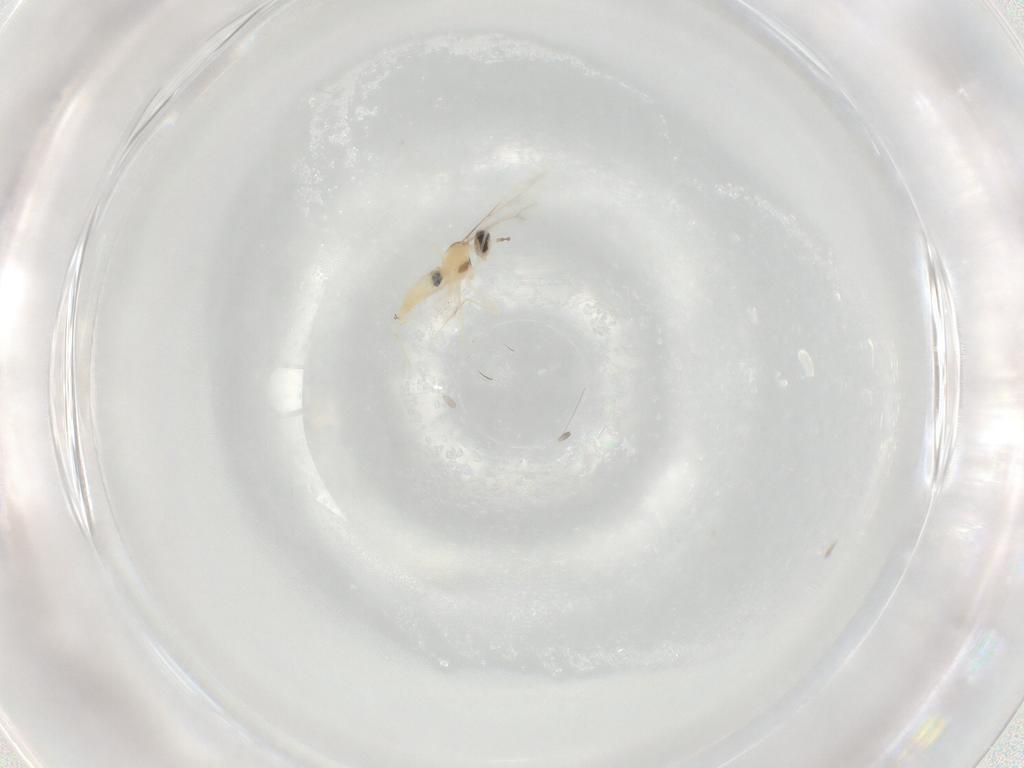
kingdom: Animalia
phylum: Arthropoda
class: Insecta
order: Diptera
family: Cecidomyiidae
